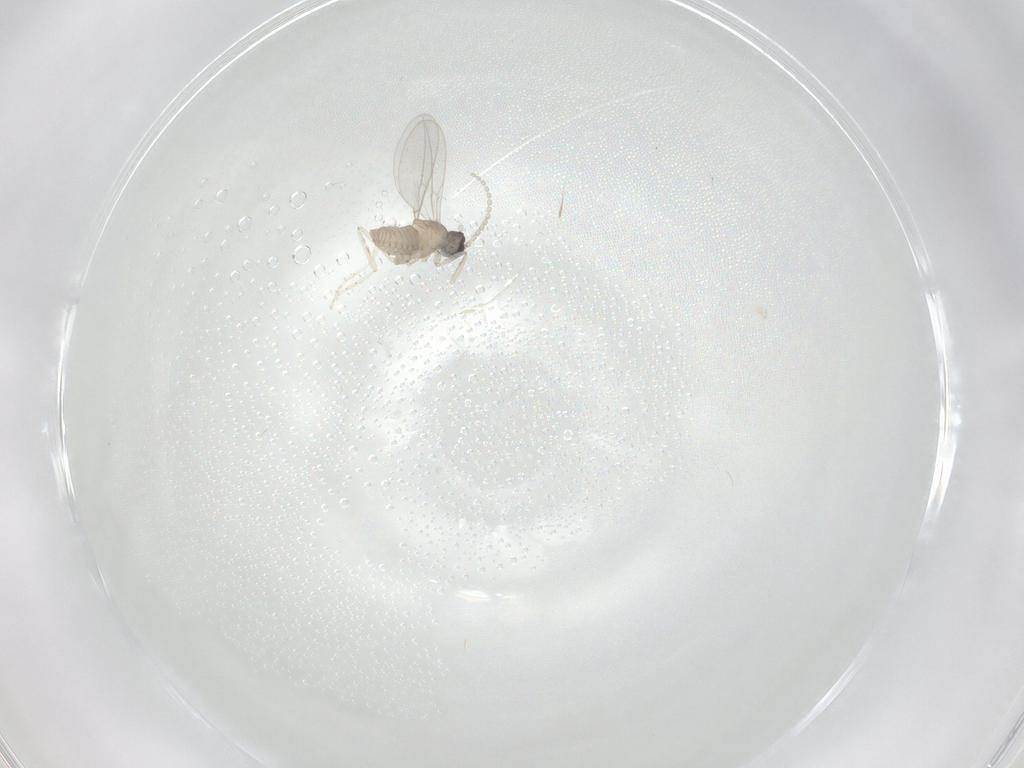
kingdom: Animalia
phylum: Arthropoda
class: Insecta
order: Diptera
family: Cecidomyiidae
